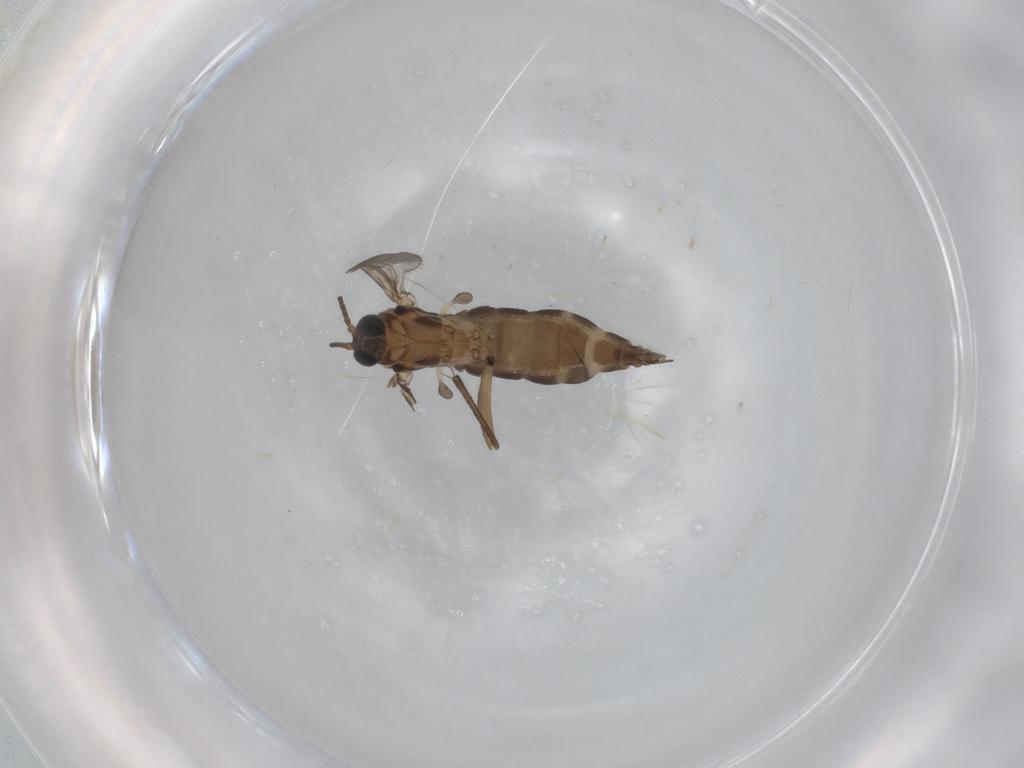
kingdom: Animalia
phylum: Arthropoda
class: Insecta
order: Diptera
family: Sciaridae
